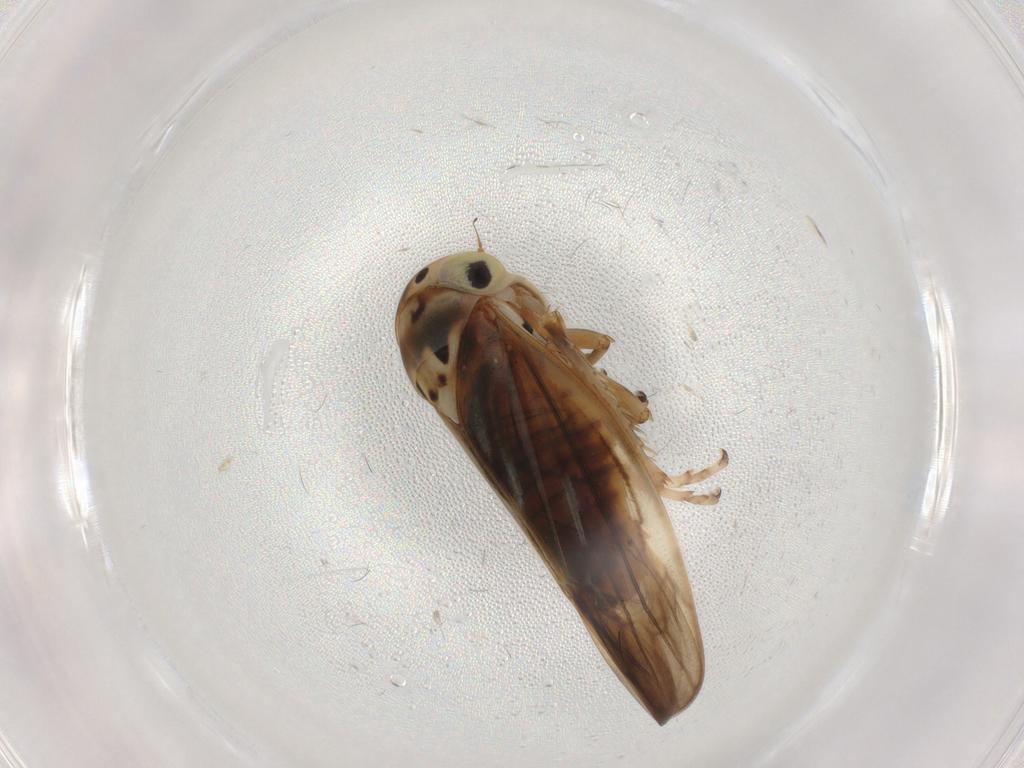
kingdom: Animalia
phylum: Arthropoda
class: Insecta
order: Hemiptera
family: Cicadellidae
